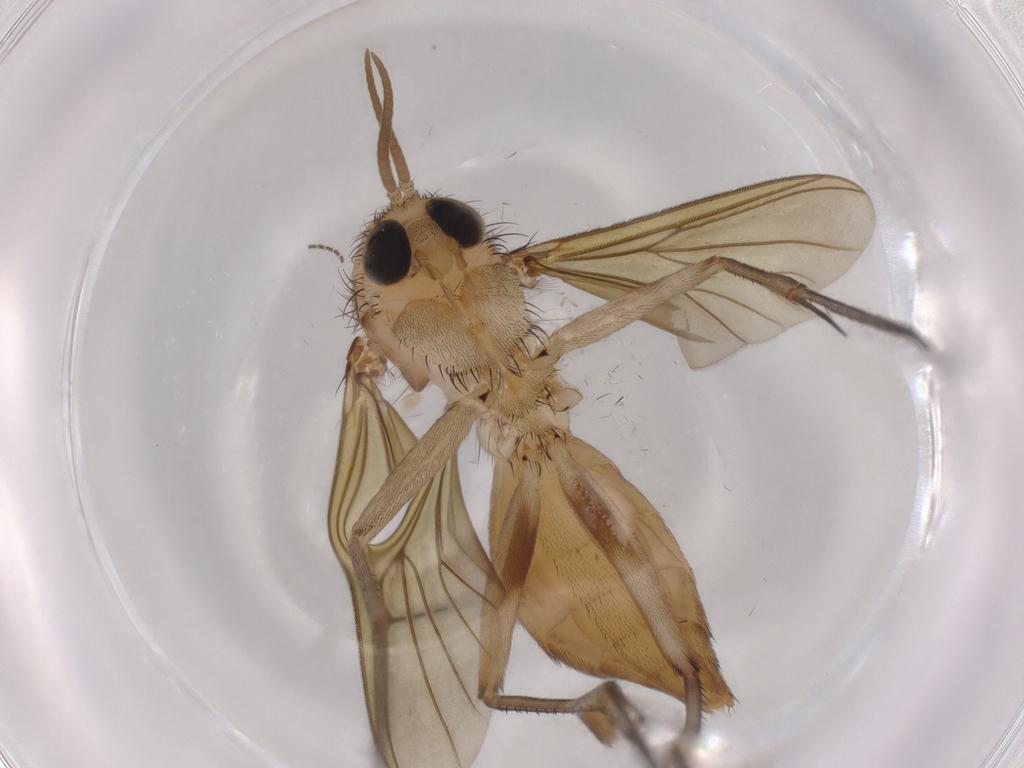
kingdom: Animalia
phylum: Arthropoda
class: Insecta
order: Diptera
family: Mycetophilidae
